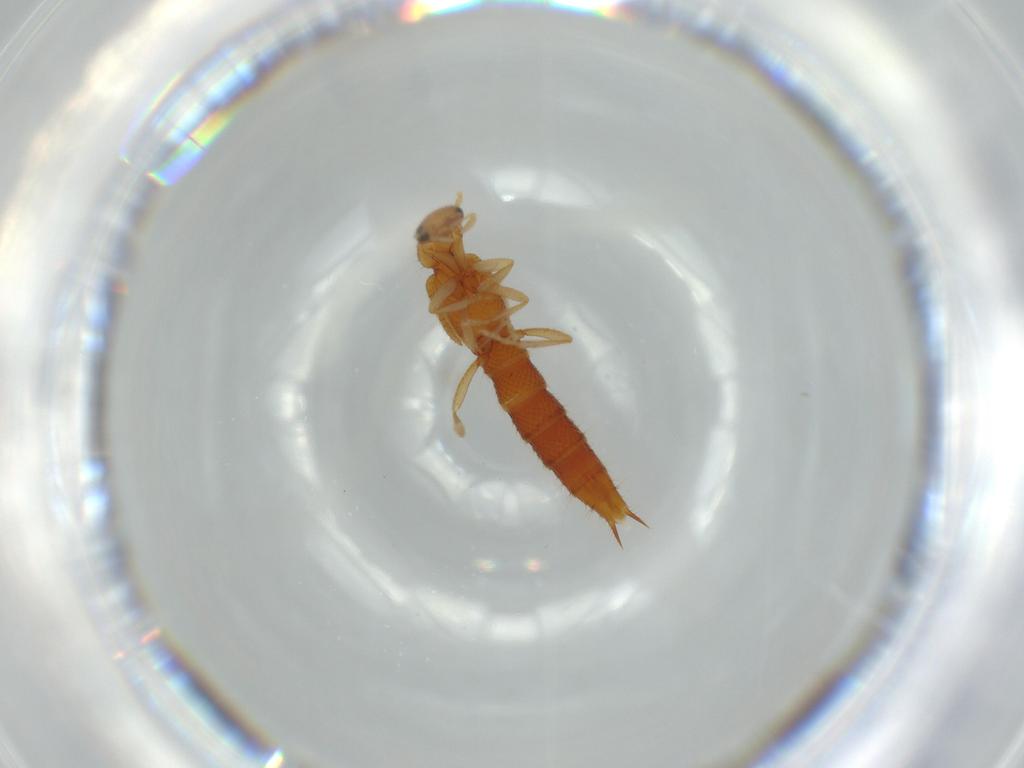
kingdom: Animalia
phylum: Arthropoda
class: Insecta
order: Coleoptera
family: Staphylinidae
